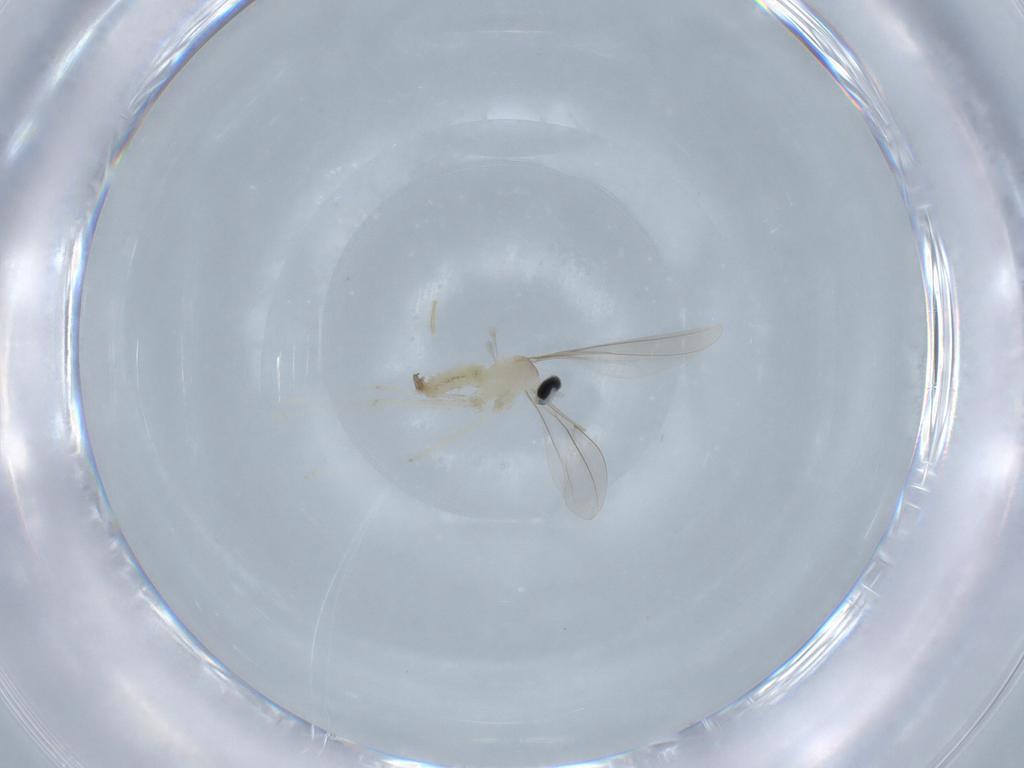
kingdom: Animalia
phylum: Arthropoda
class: Insecta
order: Diptera
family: Cecidomyiidae
